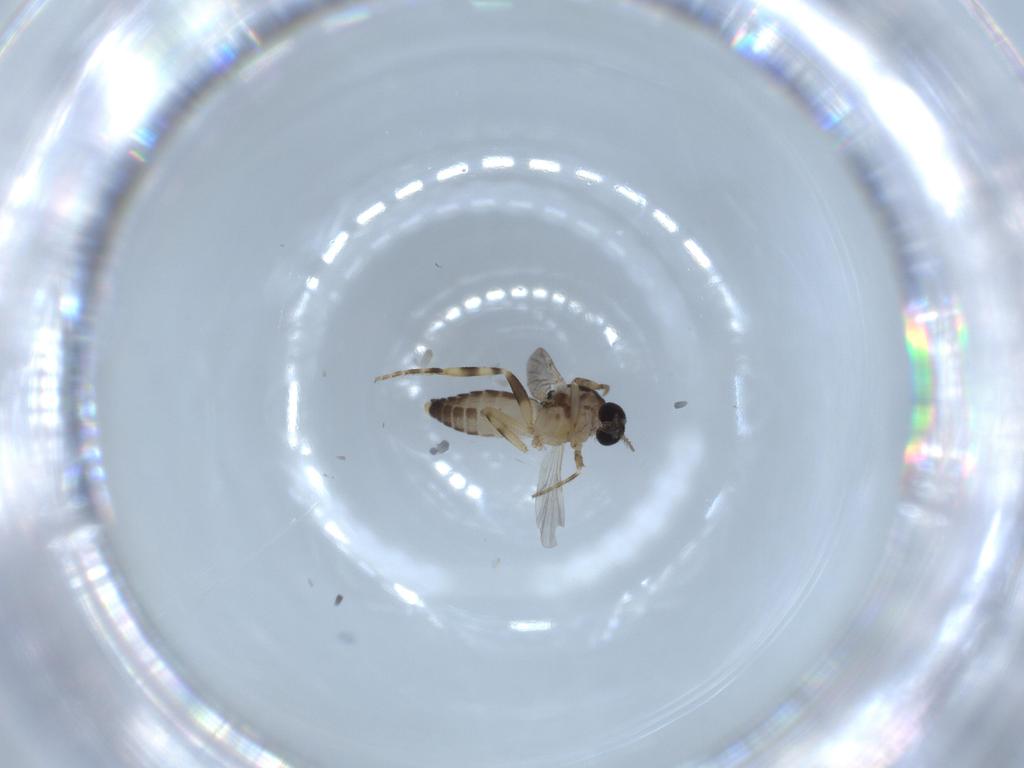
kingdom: Animalia
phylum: Arthropoda
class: Insecta
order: Diptera
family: Ceratopogonidae
